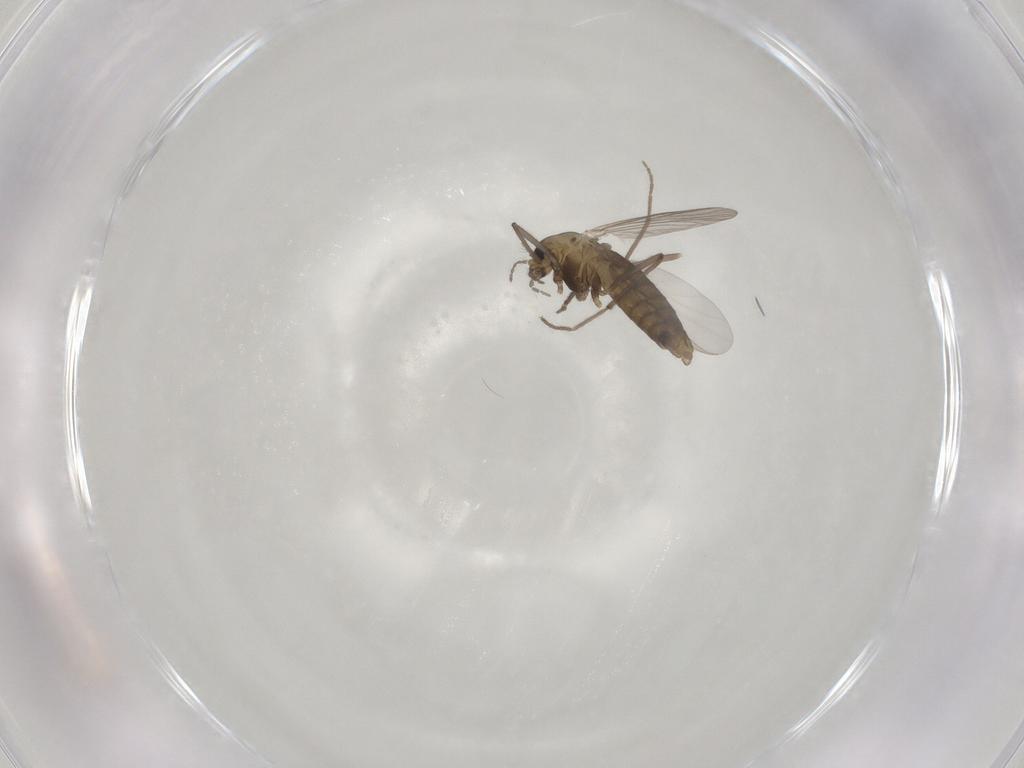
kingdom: Animalia
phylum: Arthropoda
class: Insecta
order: Diptera
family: Chironomidae
